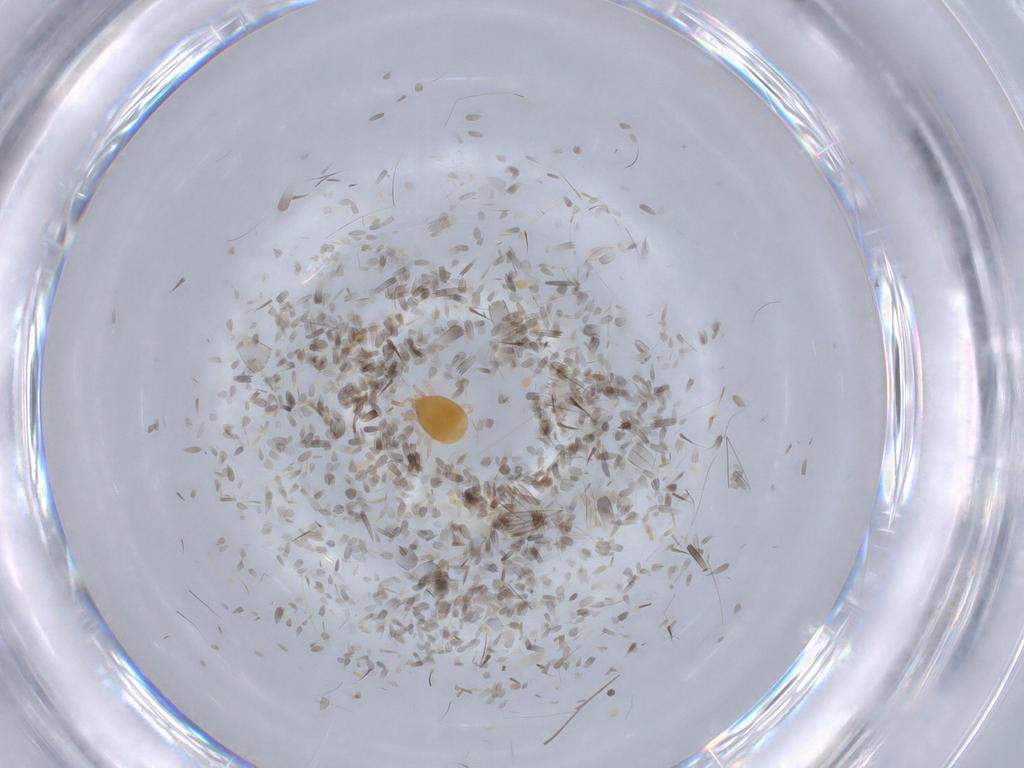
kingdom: Animalia
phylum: Arthropoda
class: Arachnida
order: Mesostigmata
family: Melicharidae
